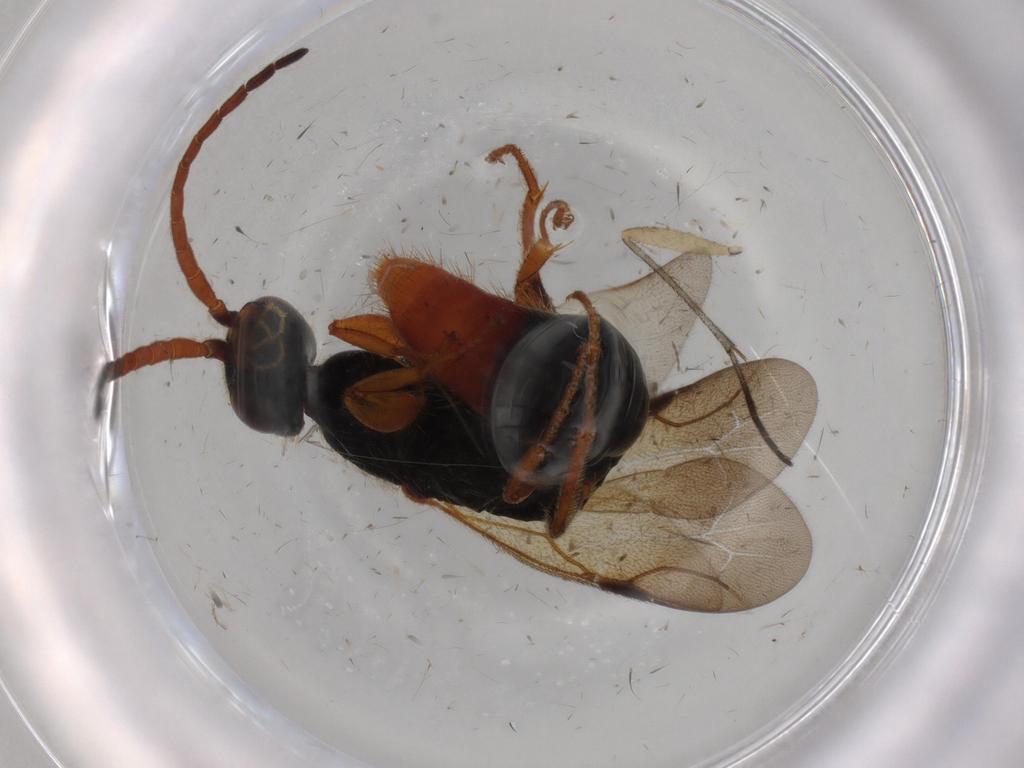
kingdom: Animalia
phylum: Arthropoda
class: Insecta
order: Hymenoptera
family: Bethylidae
